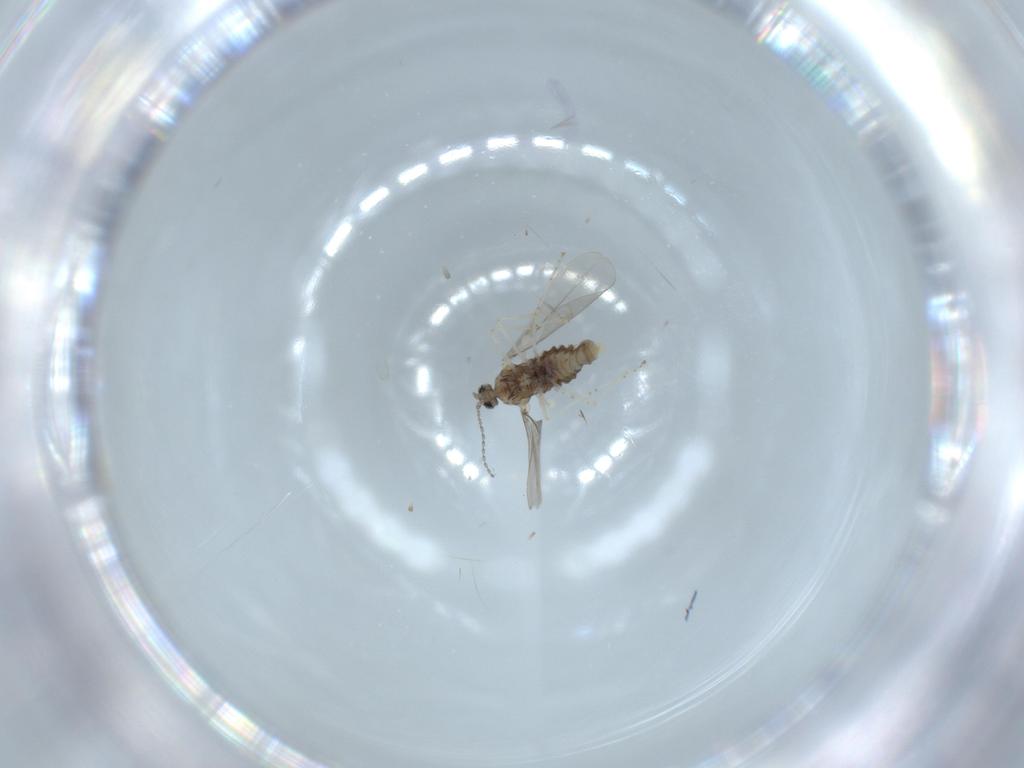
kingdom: Animalia
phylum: Arthropoda
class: Insecta
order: Diptera
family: Cecidomyiidae
